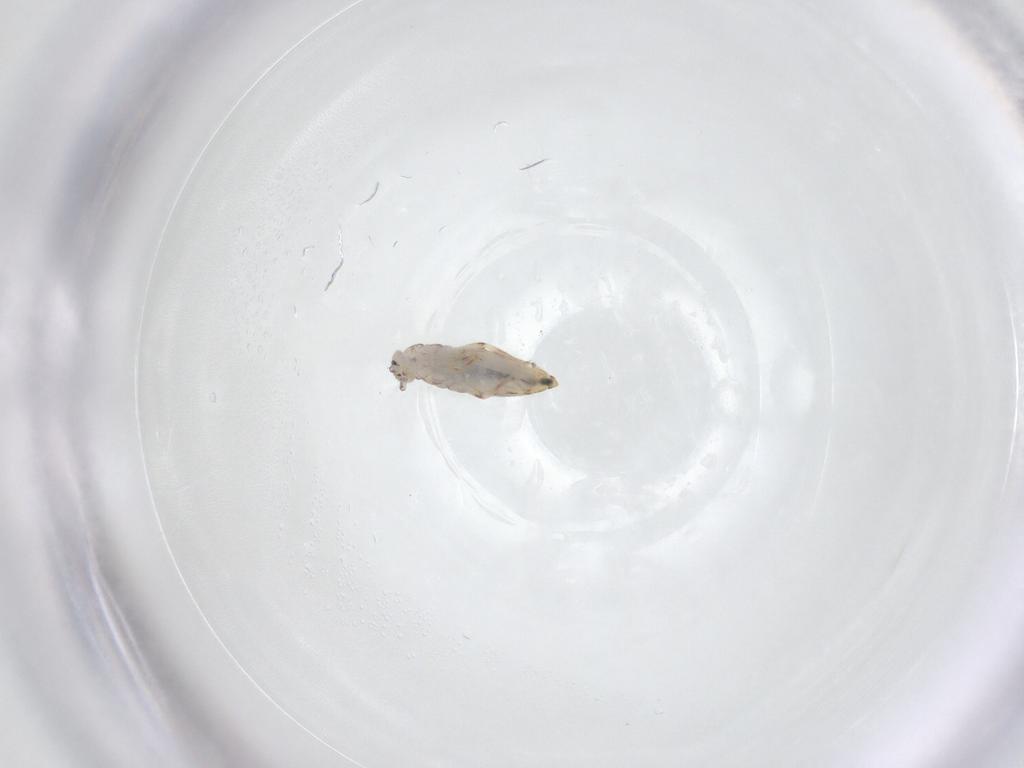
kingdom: Animalia
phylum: Arthropoda
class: Collembola
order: Entomobryomorpha
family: Entomobryidae
